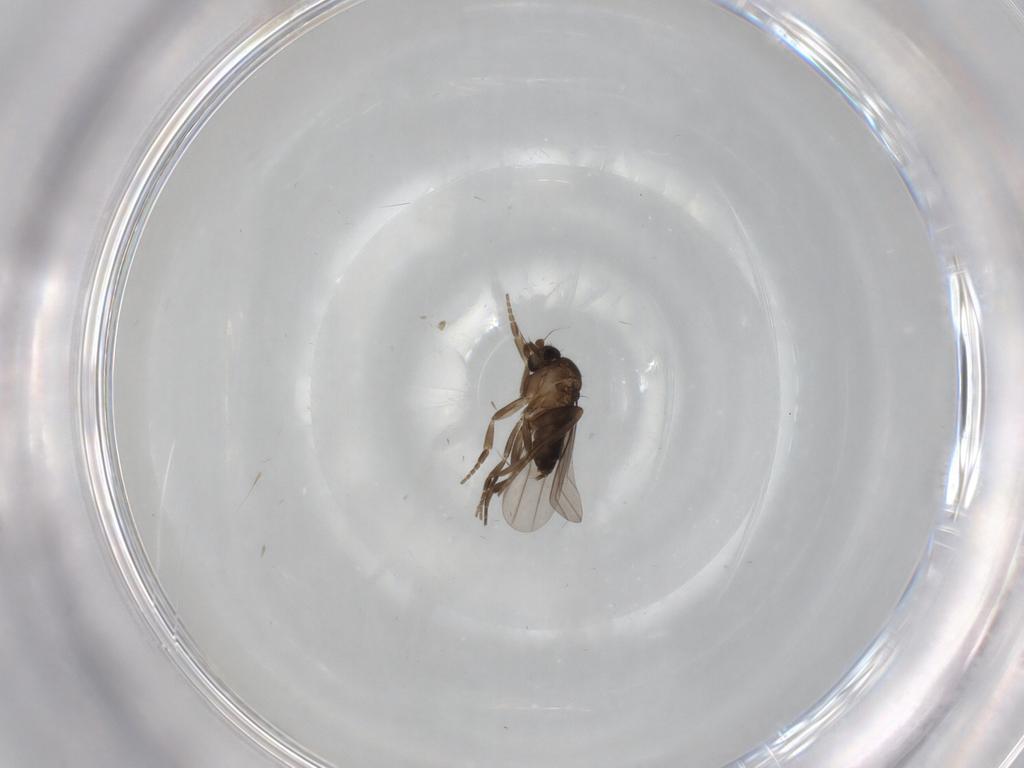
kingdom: Animalia
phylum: Arthropoda
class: Insecta
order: Diptera
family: Phoridae
